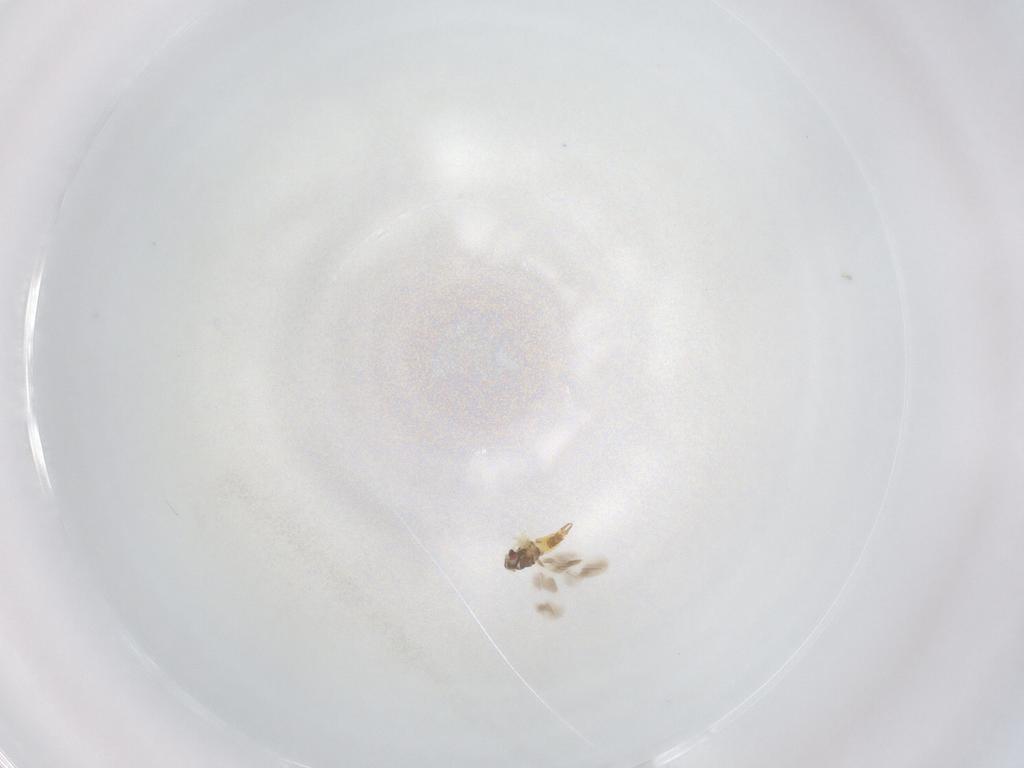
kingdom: Animalia
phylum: Arthropoda
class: Insecta
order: Hemiptera
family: Aleyrodidae
